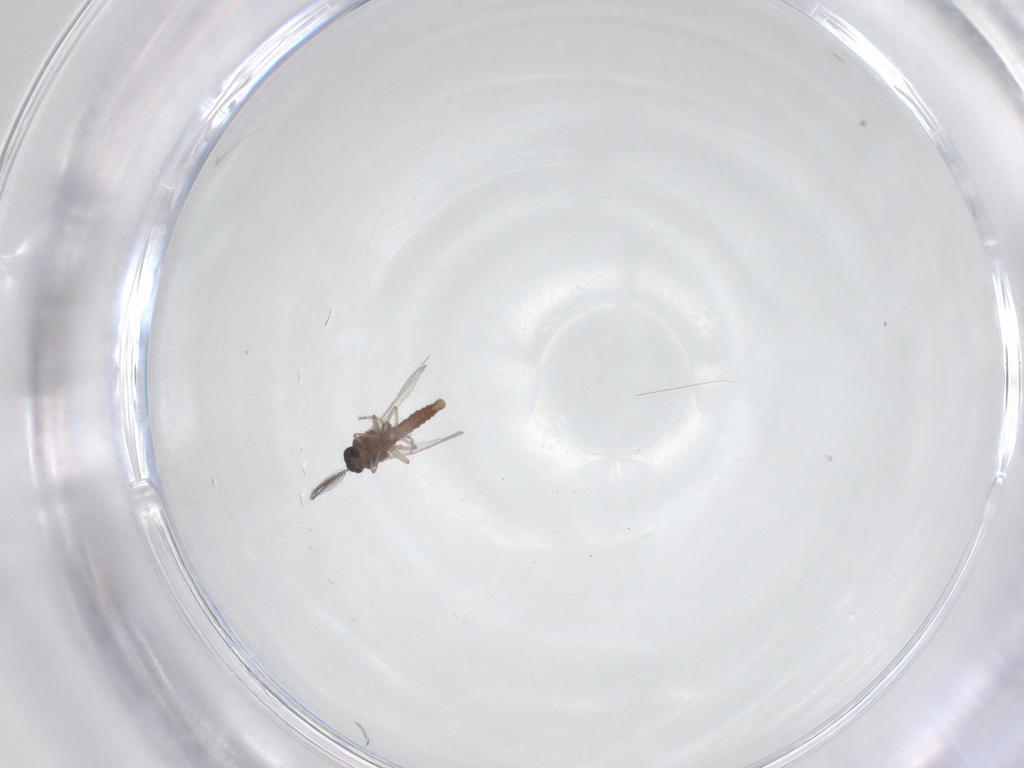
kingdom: Animalia
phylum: Arthropoda
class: Insecta
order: Diptera
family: Ceratopogonidae
